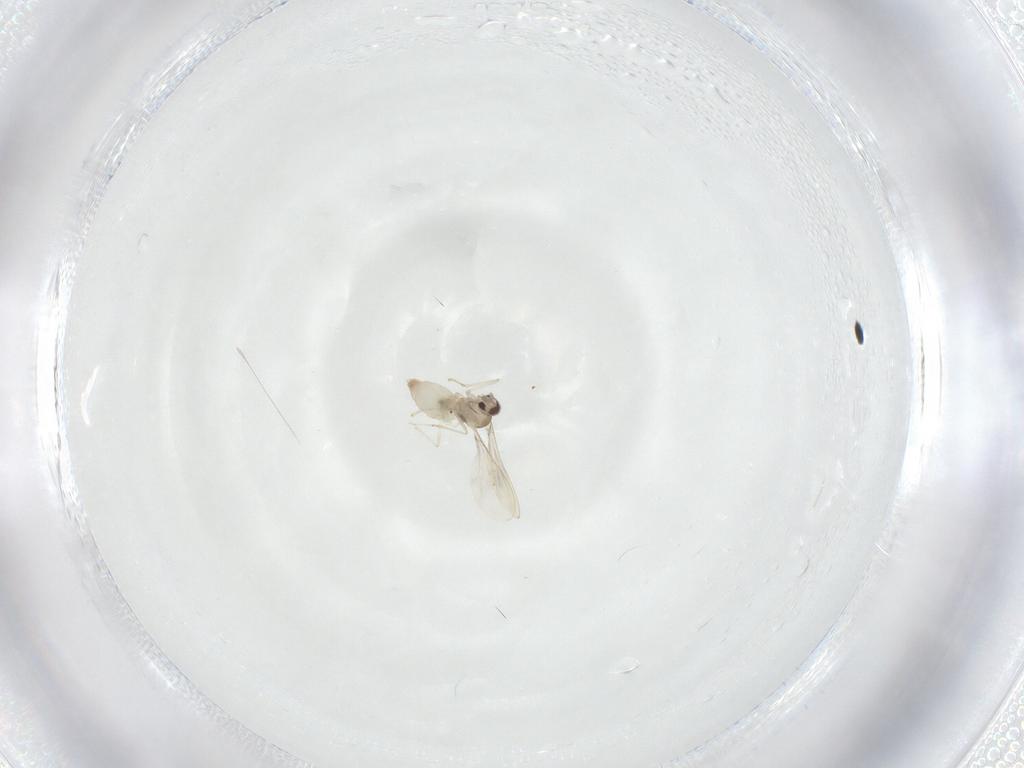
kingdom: Animalia
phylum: Arthropoda
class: Insecta
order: Diptera
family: Cecidomyiidae
